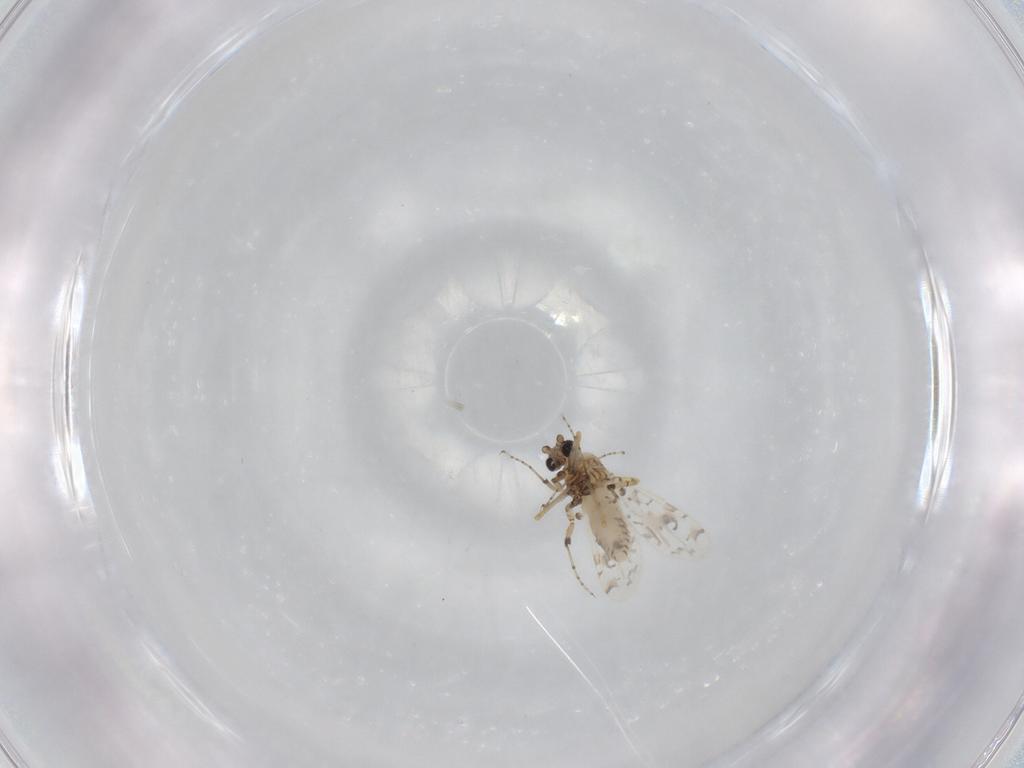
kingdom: Animalia
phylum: Arthropoda
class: Insecta
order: Diptera
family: Ceratopogonidae
